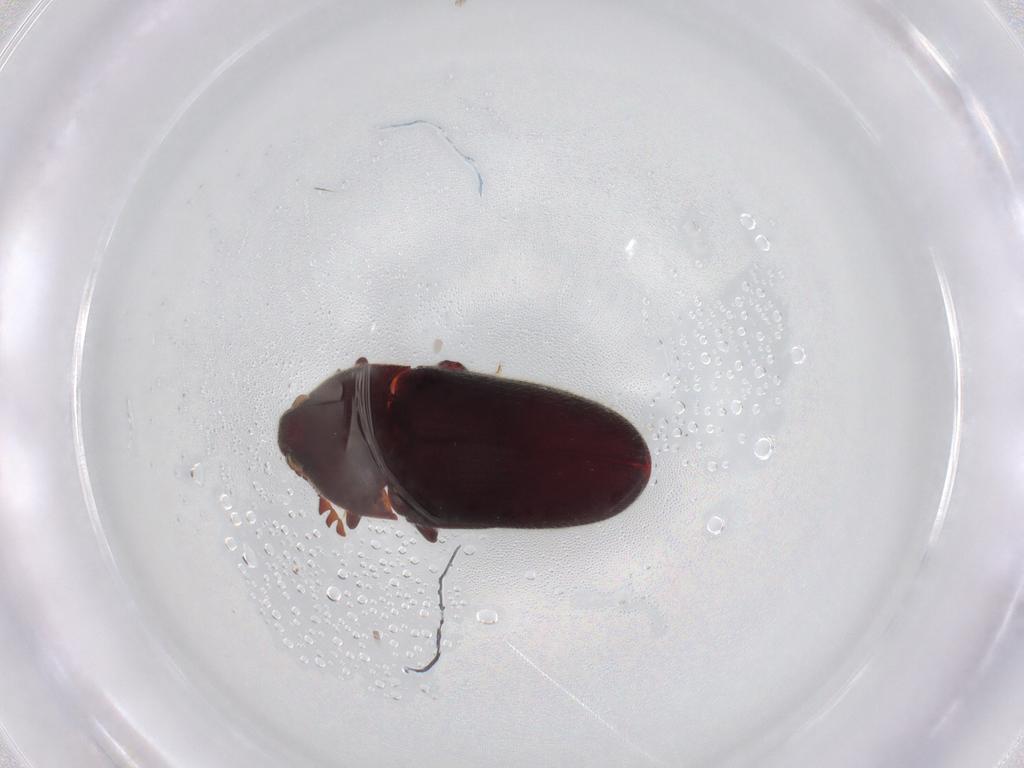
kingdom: Animalia
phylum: Arthropoda
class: Insecta
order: Coleoptera
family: Throscidae
